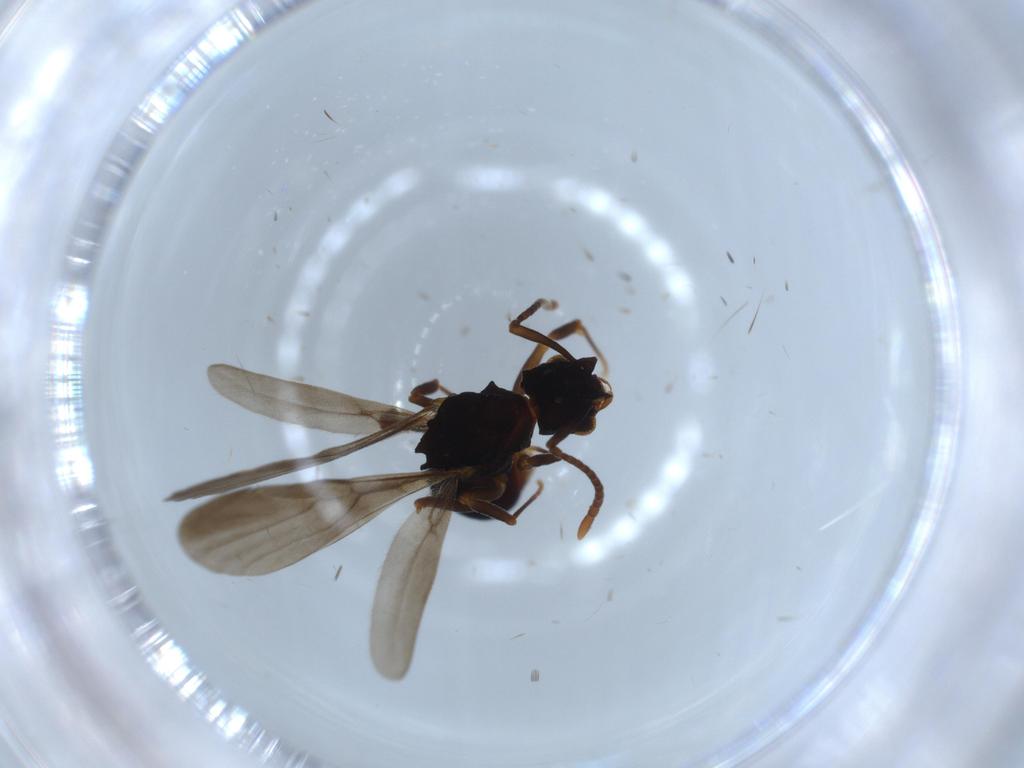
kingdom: Animalia
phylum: Arthropoda
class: Insecta
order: Hymenoptera
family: Formicidae
